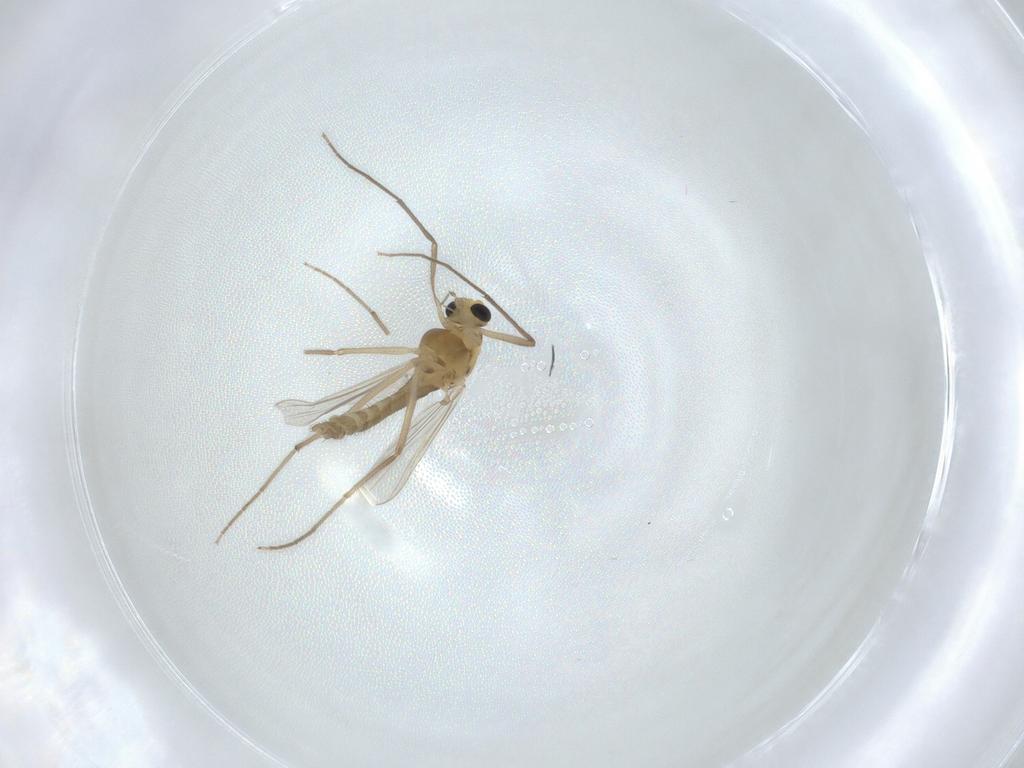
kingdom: Animalia
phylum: Arthropoda
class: Insecta
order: Diptera
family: Chironomidae
